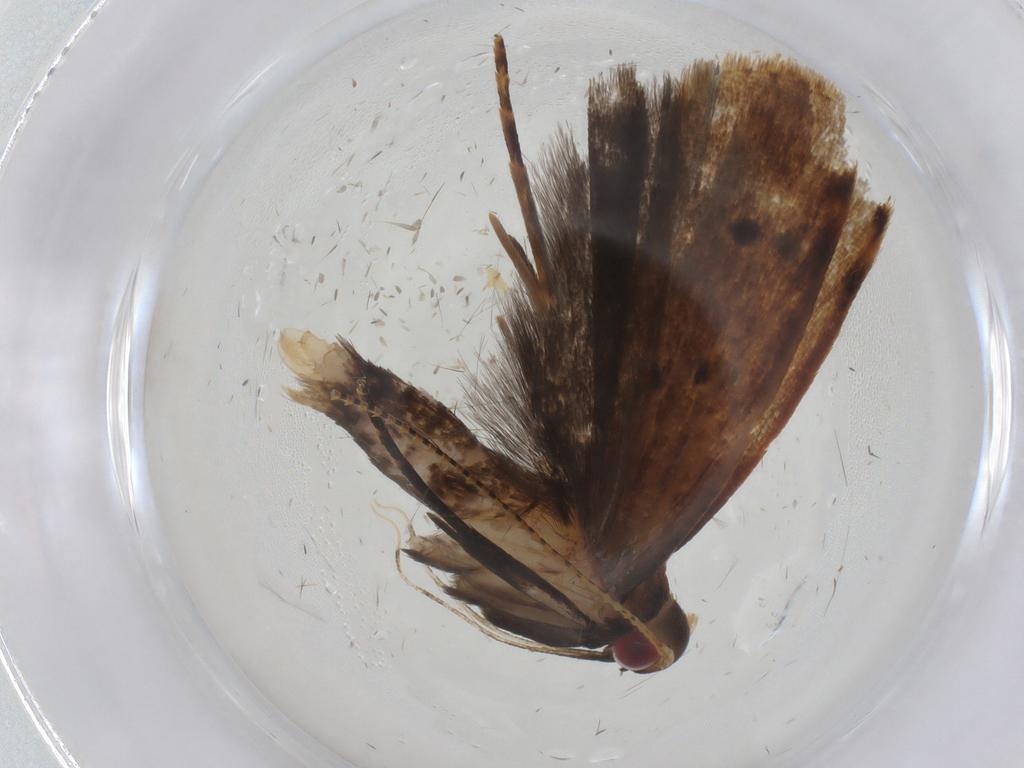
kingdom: Animalia
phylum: Arthropoda
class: Insecta
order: Lepidoptera
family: Gelechiidae
